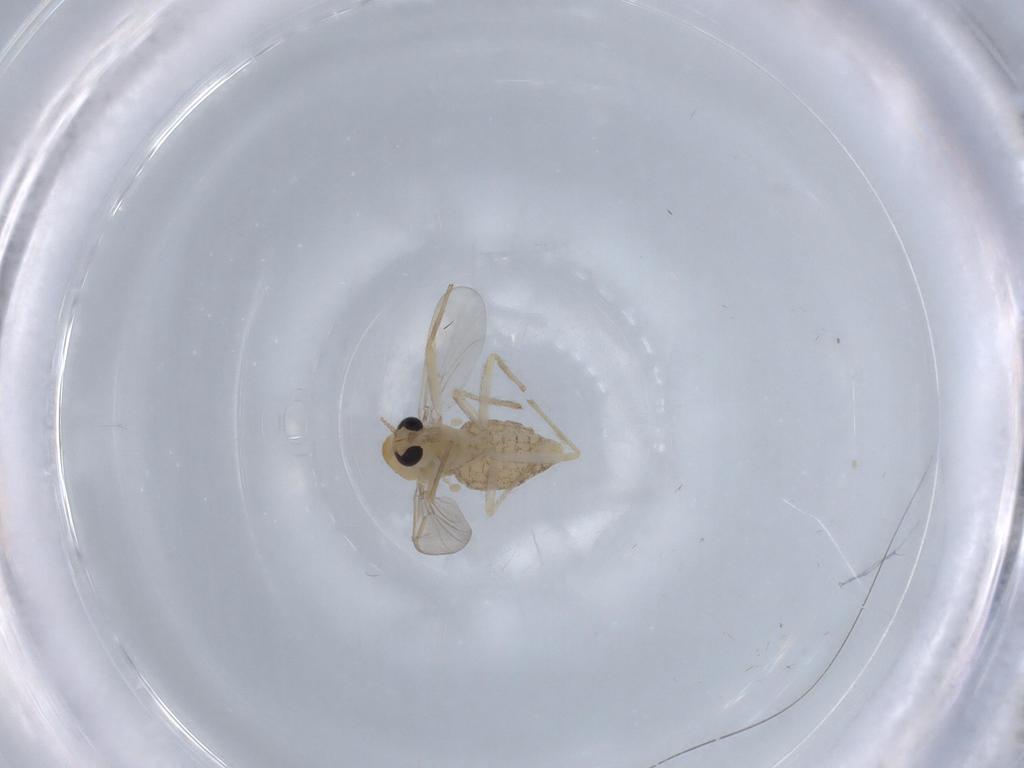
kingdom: Animalia
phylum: Arthropoda
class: Insecta
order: Diptera
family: Chironomidae
